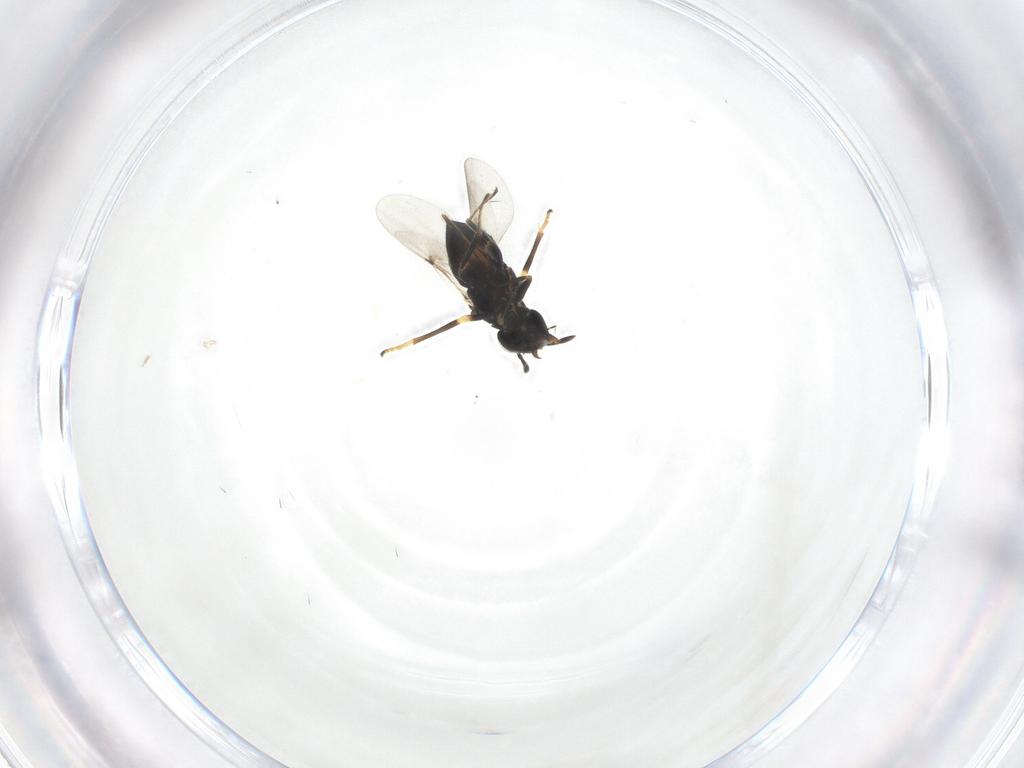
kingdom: Animalia
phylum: Arthropoda
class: Insecta
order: Hymenoptera
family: Encyrtidae
